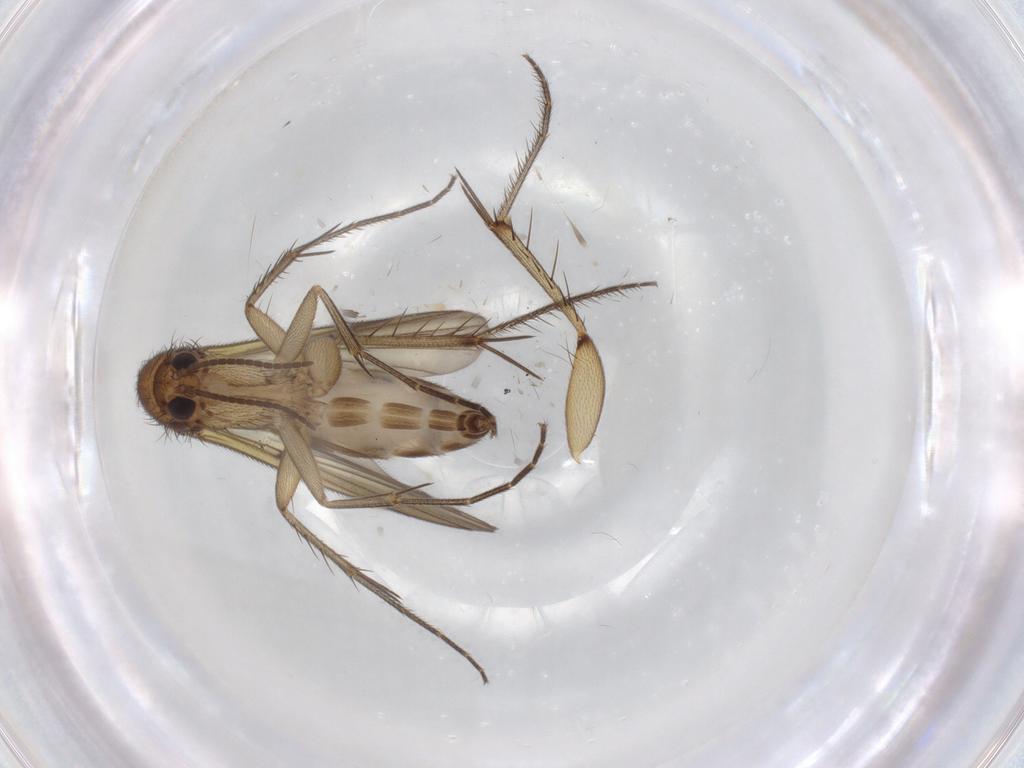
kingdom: Animalia
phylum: Arthropoda
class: Insecta
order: Diptera
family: Mycetophilidae
